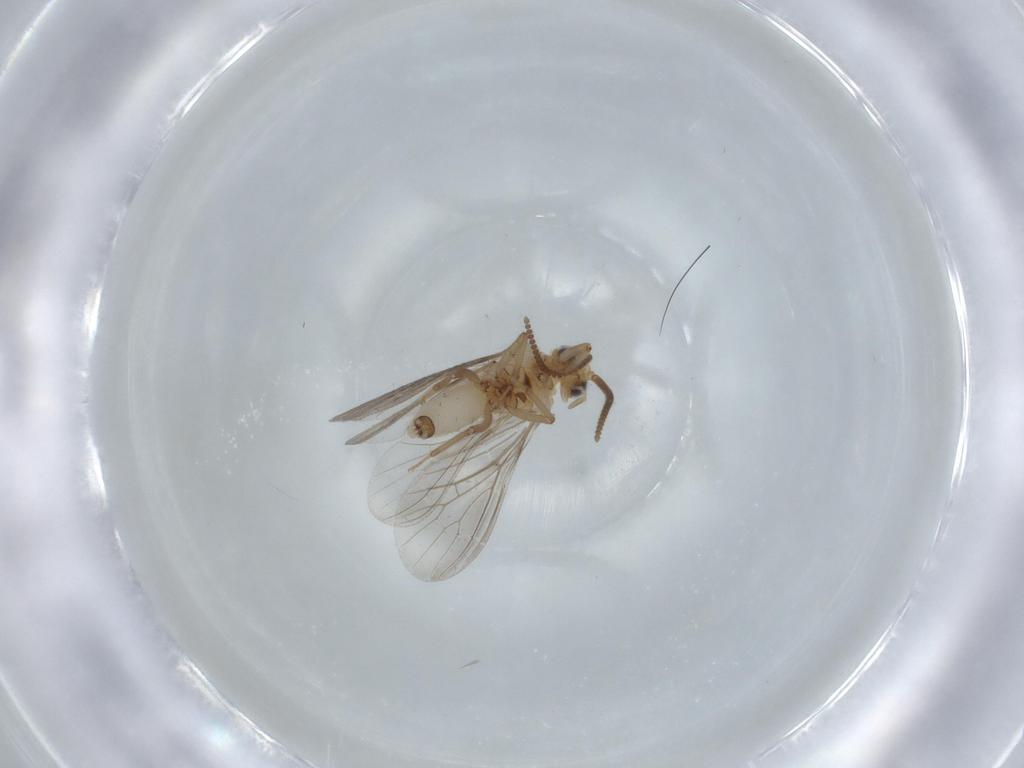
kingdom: Animalia
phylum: Arthropoda
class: Insecta
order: Neuroptera
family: Coniopterygidae
